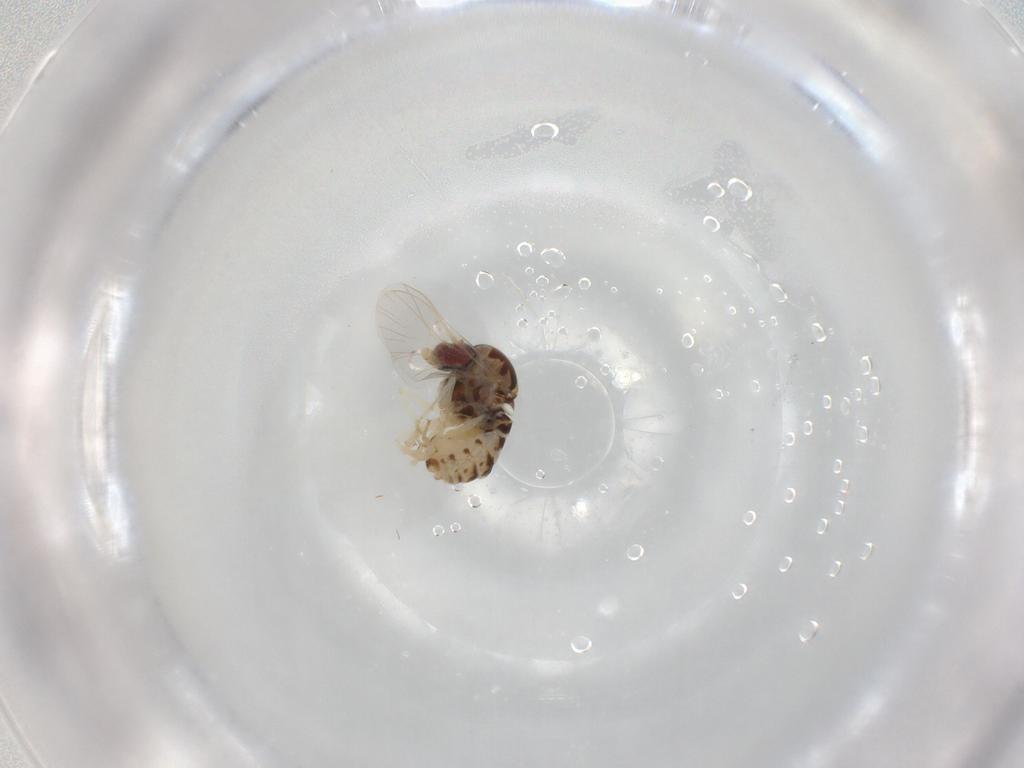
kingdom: Animalia
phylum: Arthropoda
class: Insecta
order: Diptera
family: Bombyliidae
